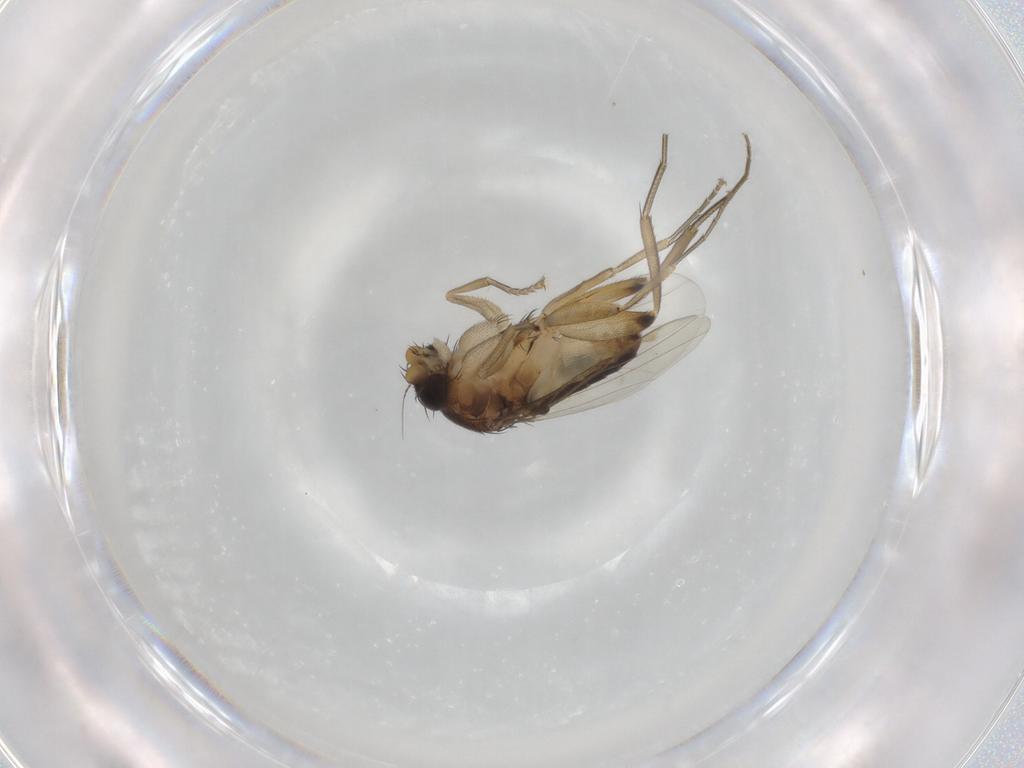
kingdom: Animalia
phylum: Arthropoda
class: Insecta
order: Diptera
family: Phoridae
